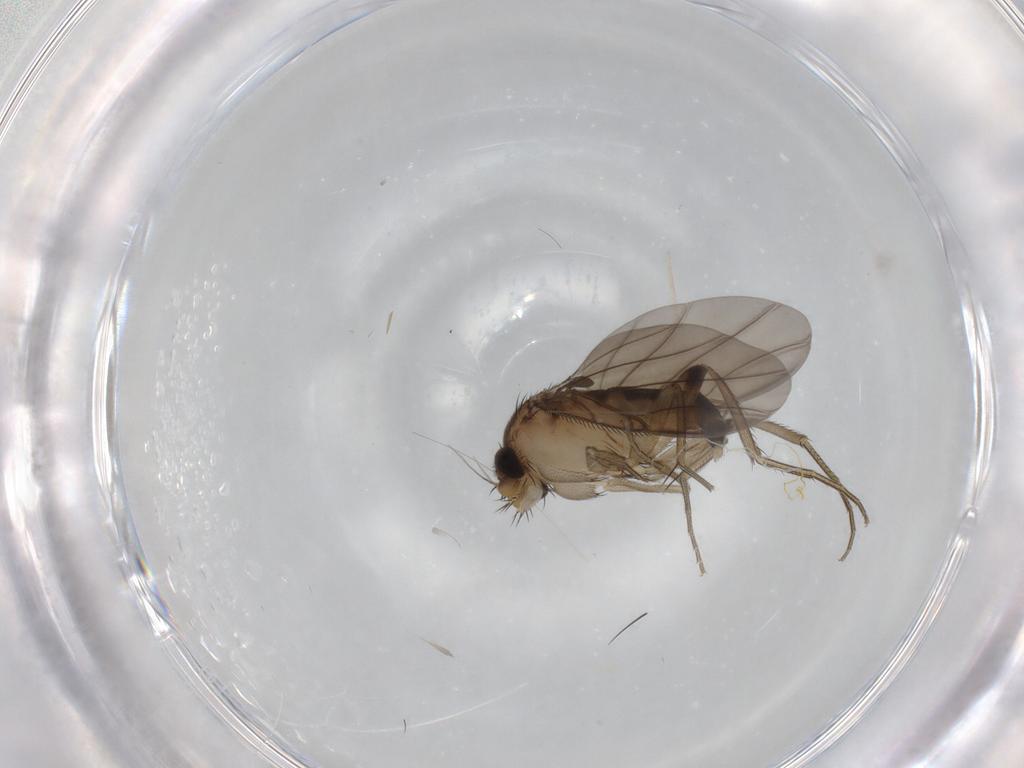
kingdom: Animalia
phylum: Arthropoda
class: Insecta
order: Diptera
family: Phoridae
